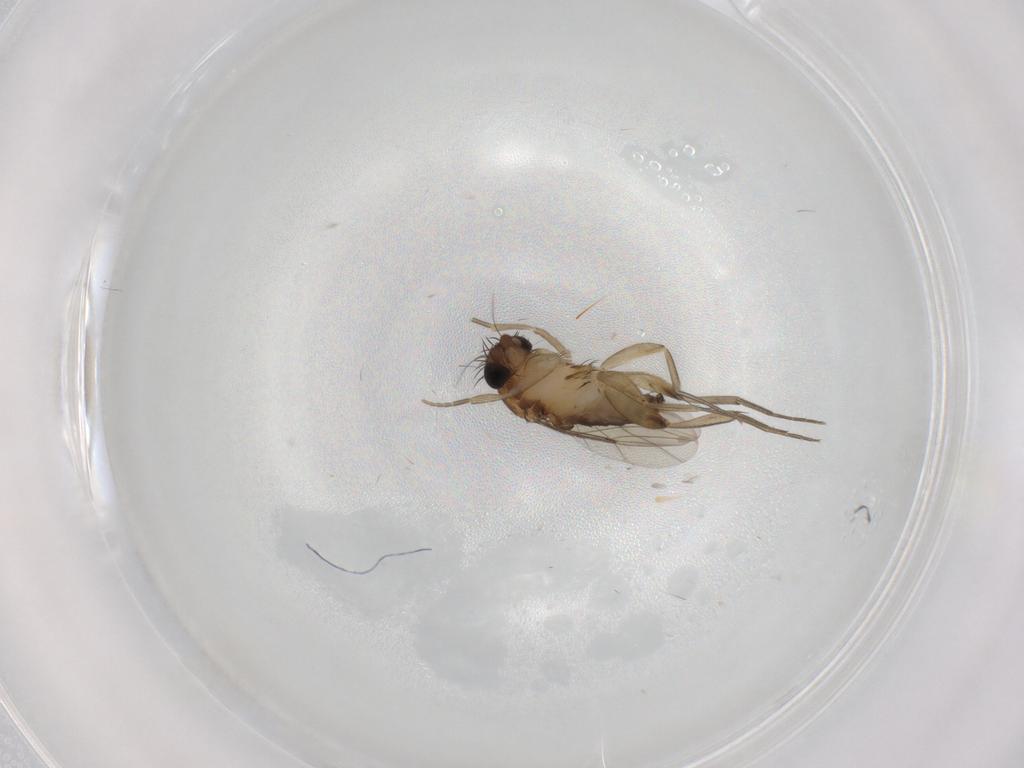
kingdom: Animalia
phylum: Arthropoda
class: Insecta
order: Diptera
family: Phoridae
